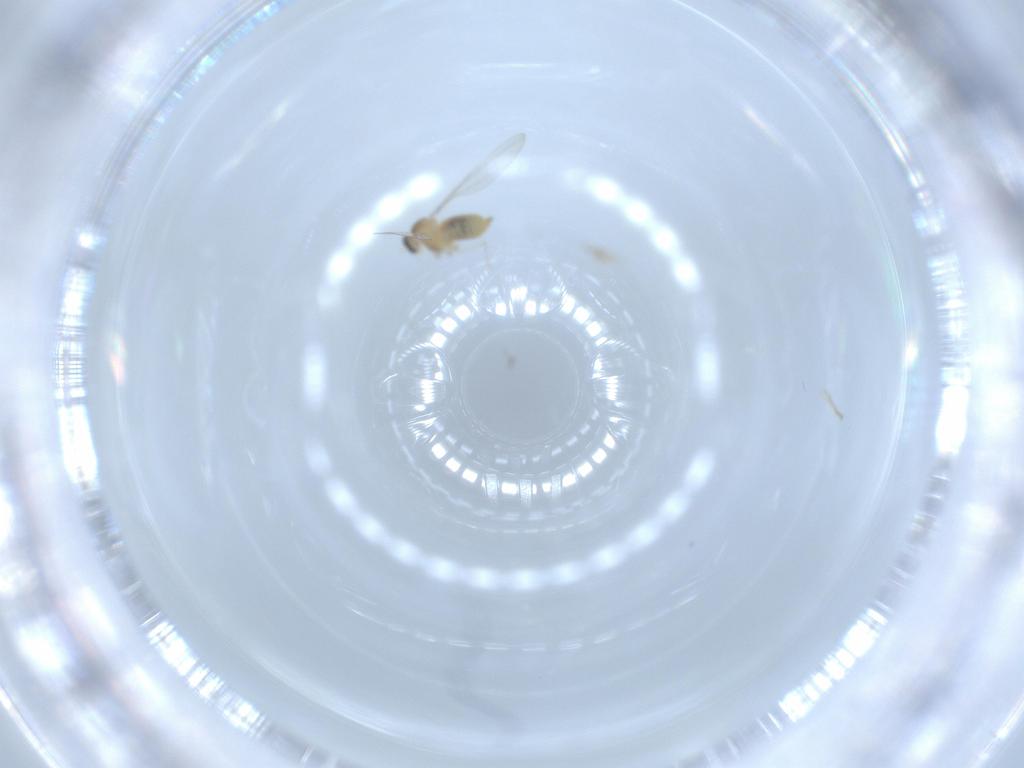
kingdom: Animalia
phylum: Arthropoda
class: Insecta
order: Diptera
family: Cecidomyiidae
